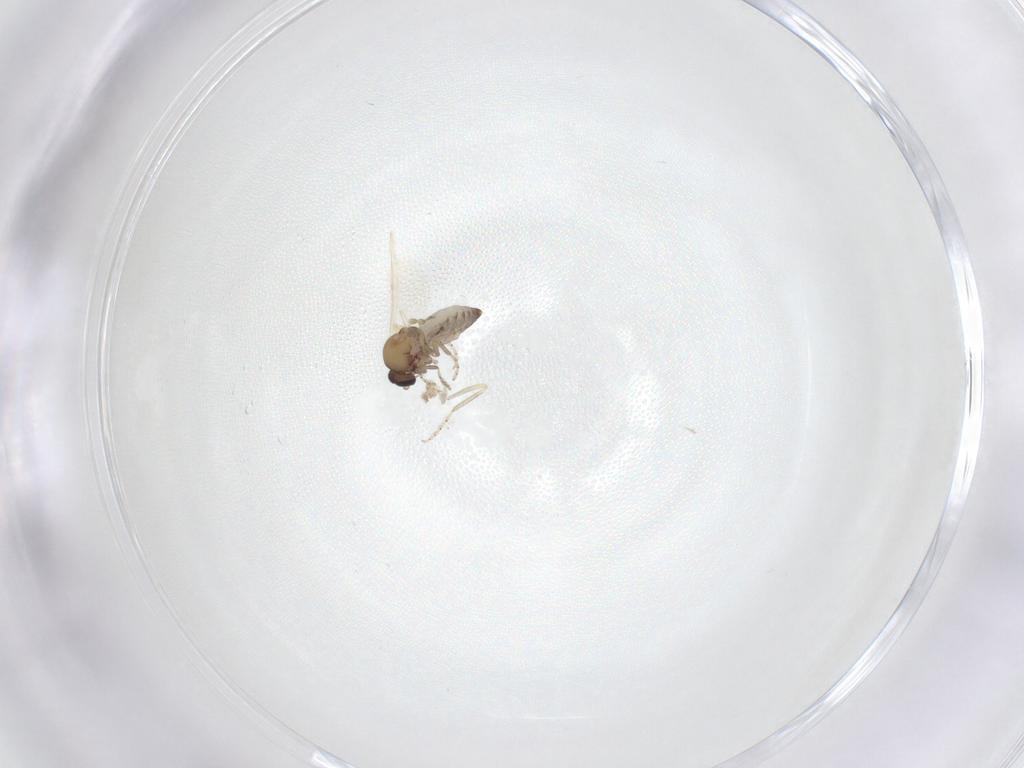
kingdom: Animalia
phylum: Arthropoda
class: Insecta
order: Diptera
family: Ceratopogonidae
